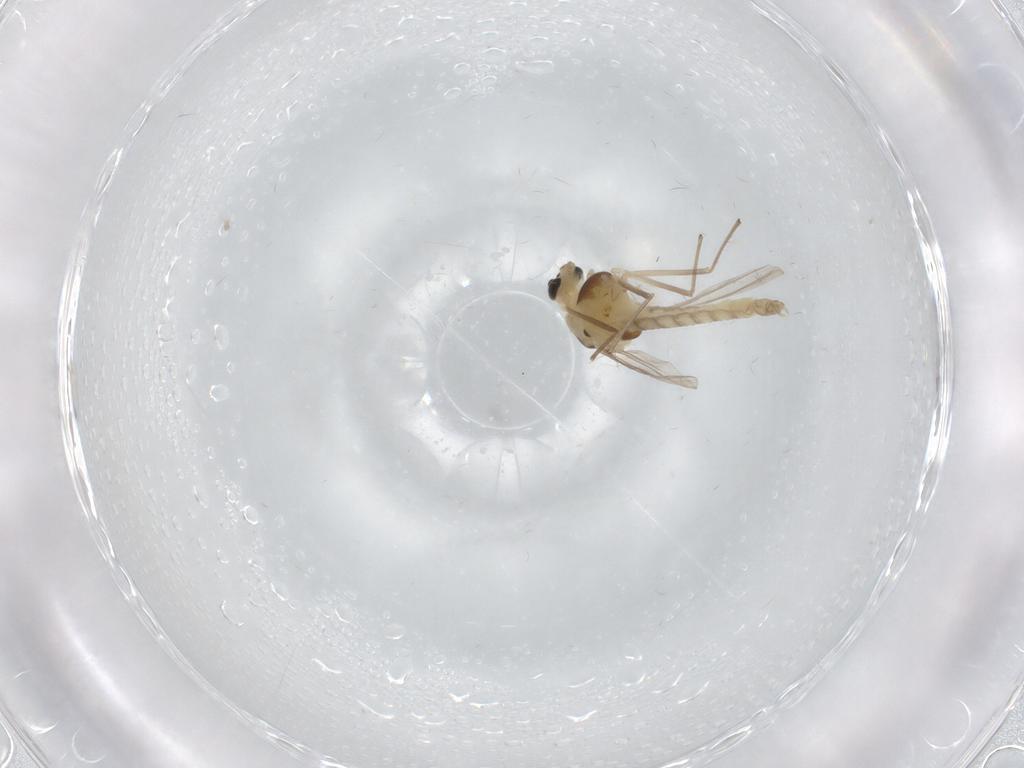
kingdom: Animalia
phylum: Arthropoda
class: Insecta
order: Diptera
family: Chironomidae
